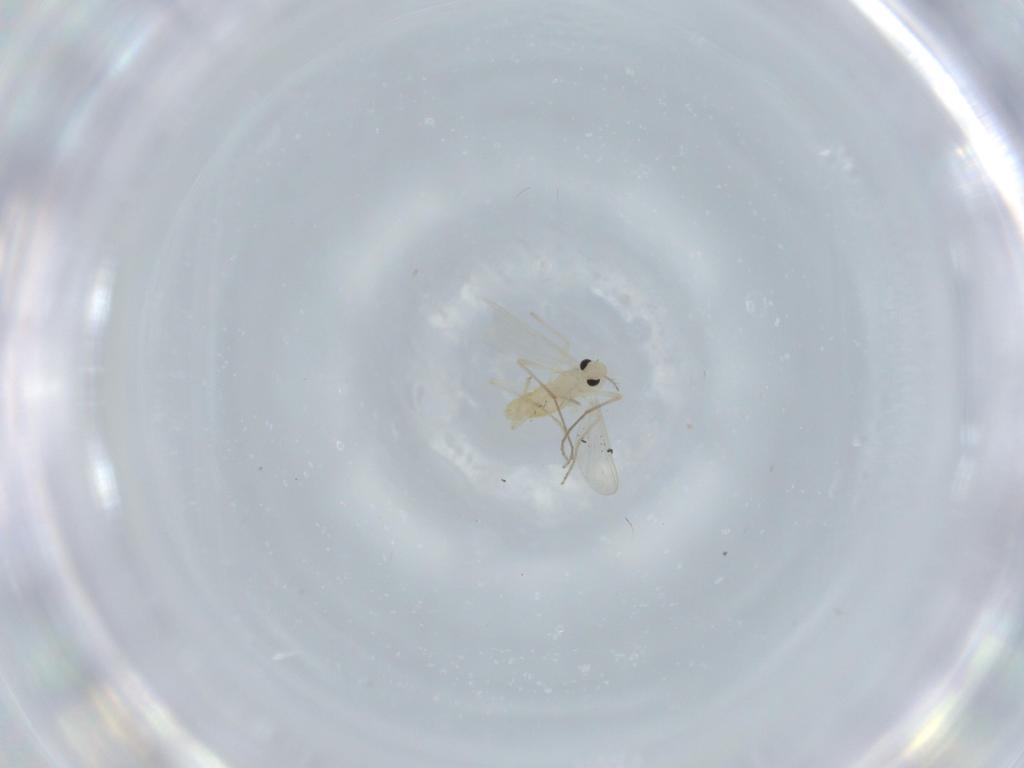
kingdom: Animalia
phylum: Arthropoda
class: Insecta
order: Diptera
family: Chironomidae
